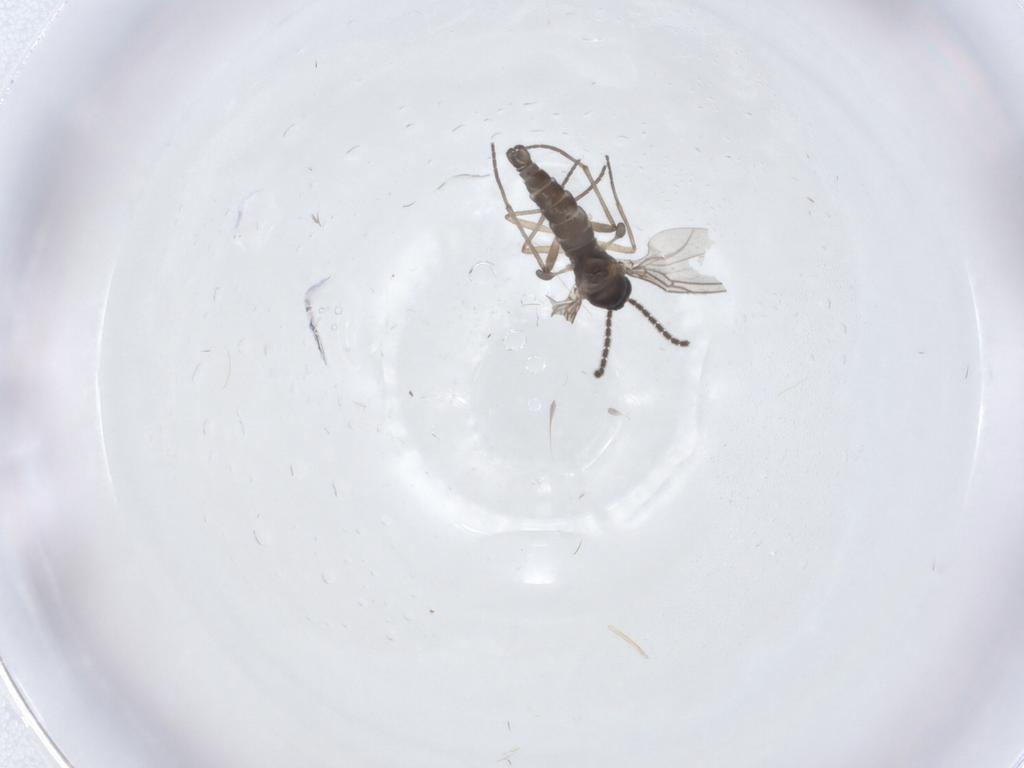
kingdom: Animalia
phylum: Arthropoda
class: Insecta
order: Diptera
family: Sciaridae
